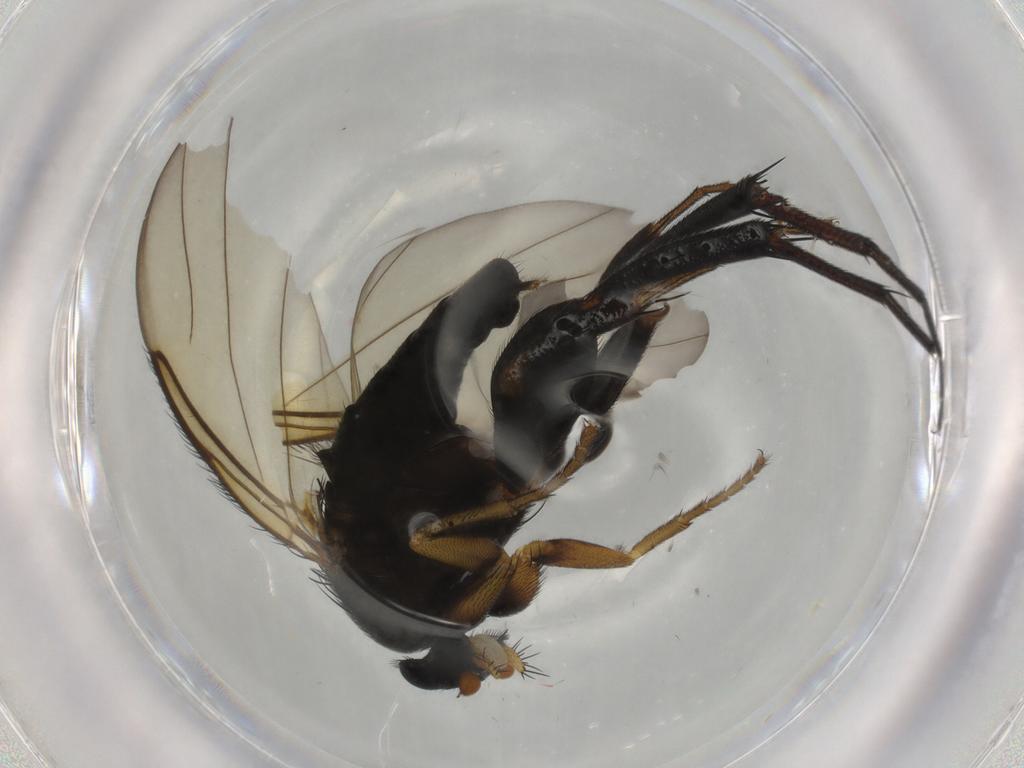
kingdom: Animalia
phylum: Arthropoda
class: Insecta
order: Diptera
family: Phoridae
